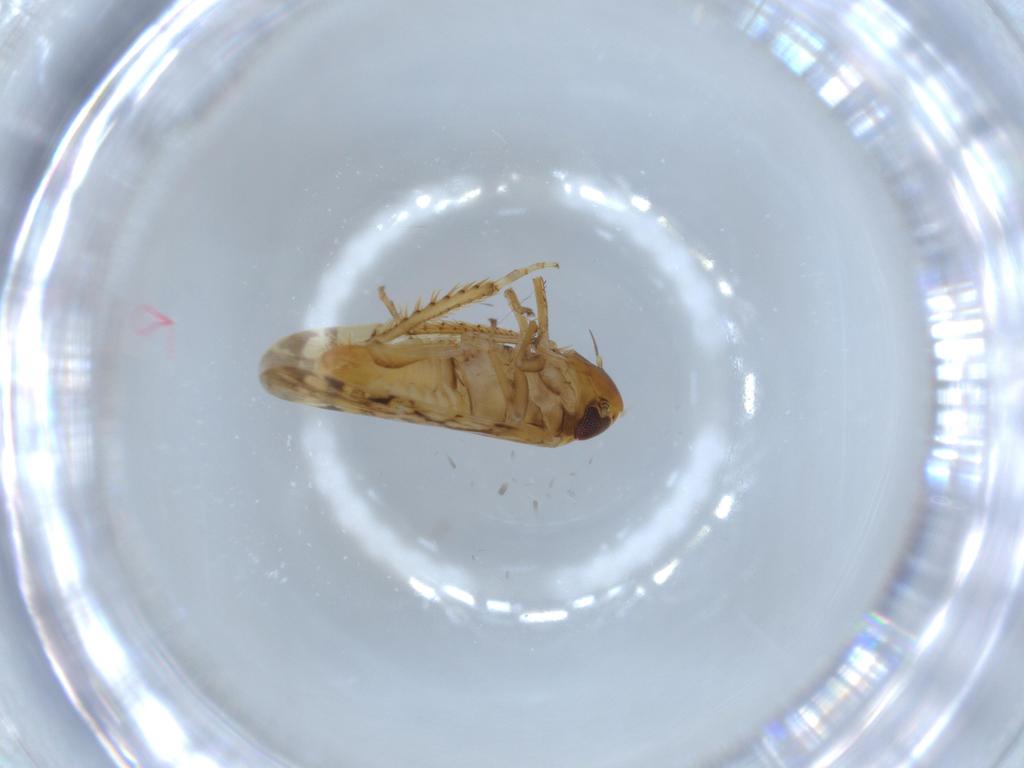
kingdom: Animalia
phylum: Arthropoda
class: Insecta
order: Hemiptera
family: Cicadellidae
